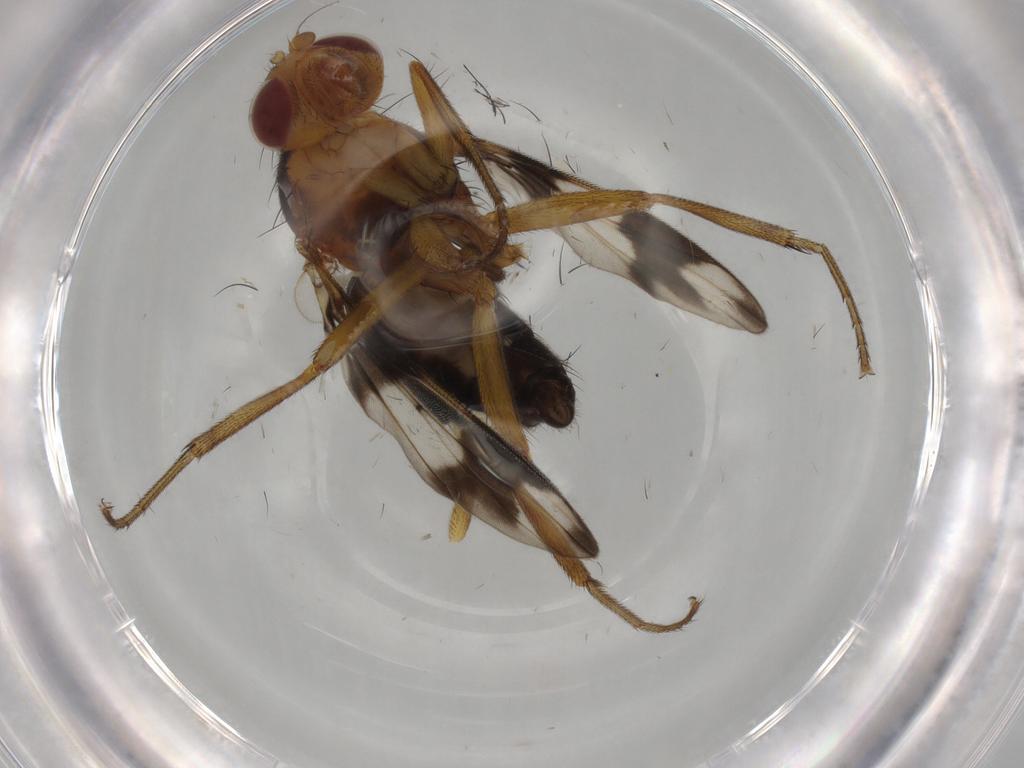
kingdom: Animalia
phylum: Arthropoda
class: Insecta
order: Diptera
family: Richardiidae
